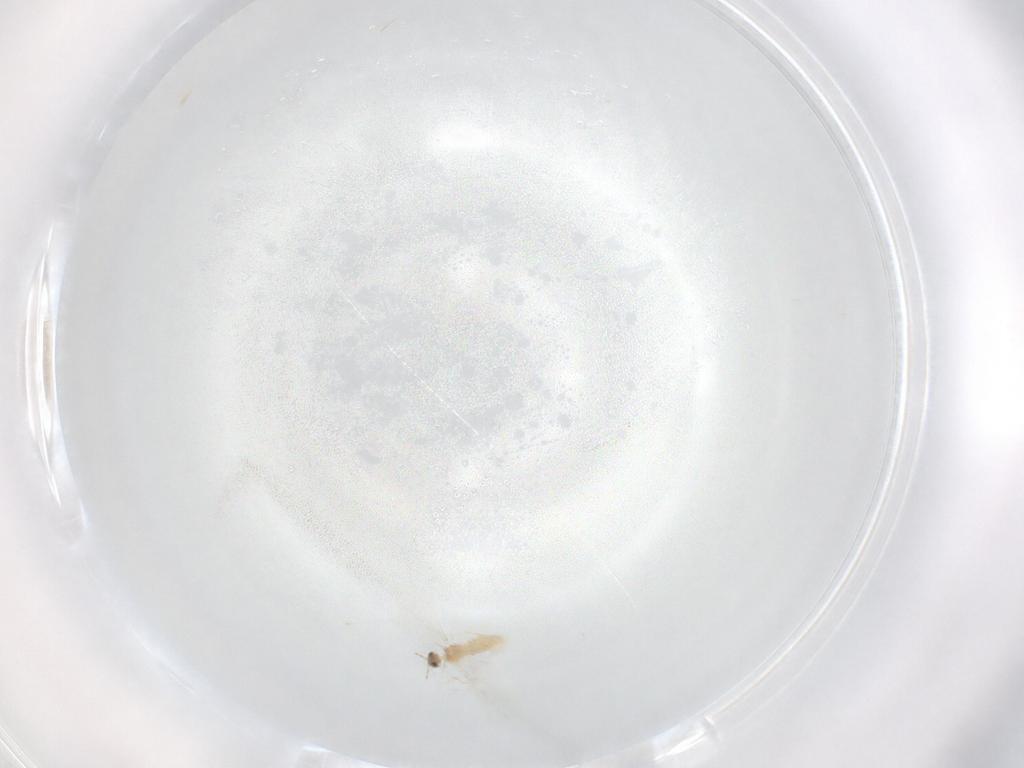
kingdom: Animalia
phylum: Arthropoda
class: Insecta
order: Diptera
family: Cecidomyiidae
